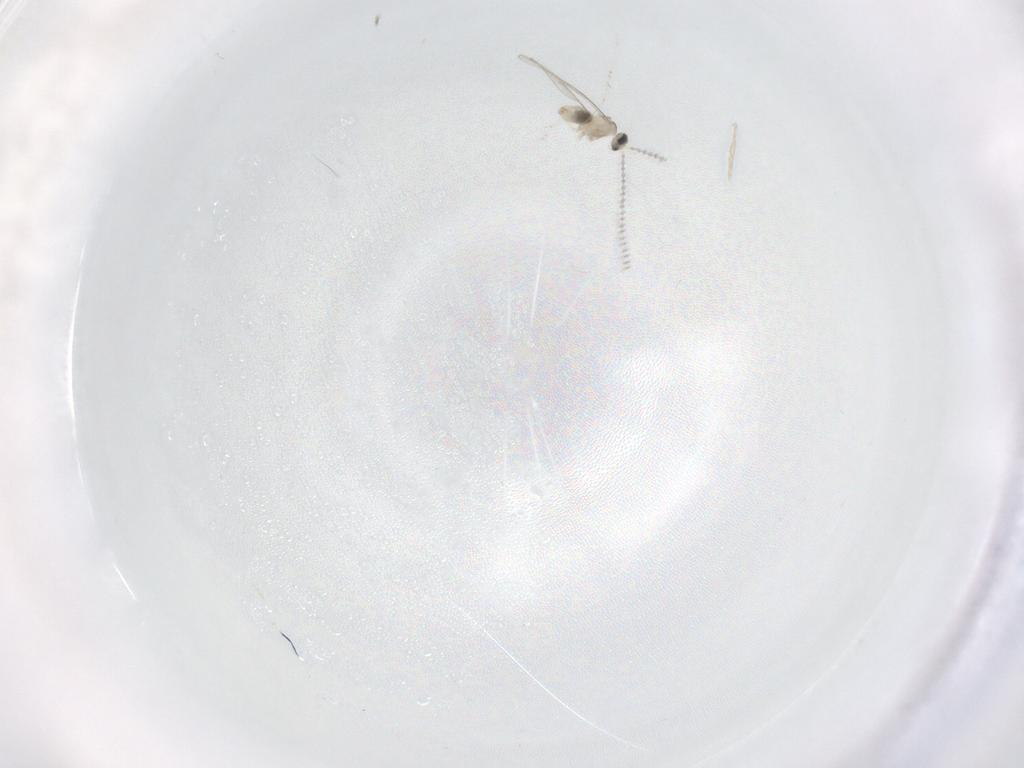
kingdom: Animalia
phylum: Arthropoda
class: Insecta
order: Diptera
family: Cecidomyiidae
